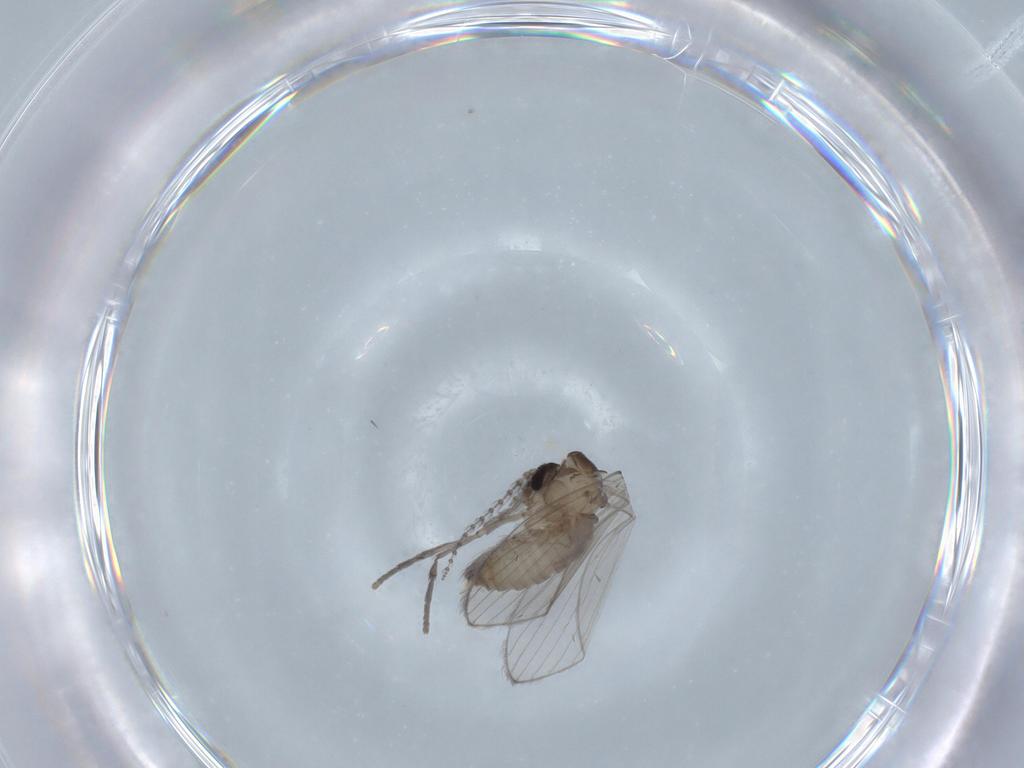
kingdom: Animalia
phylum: Arthropoda
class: Insecta
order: Diptera
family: Psychodidae
